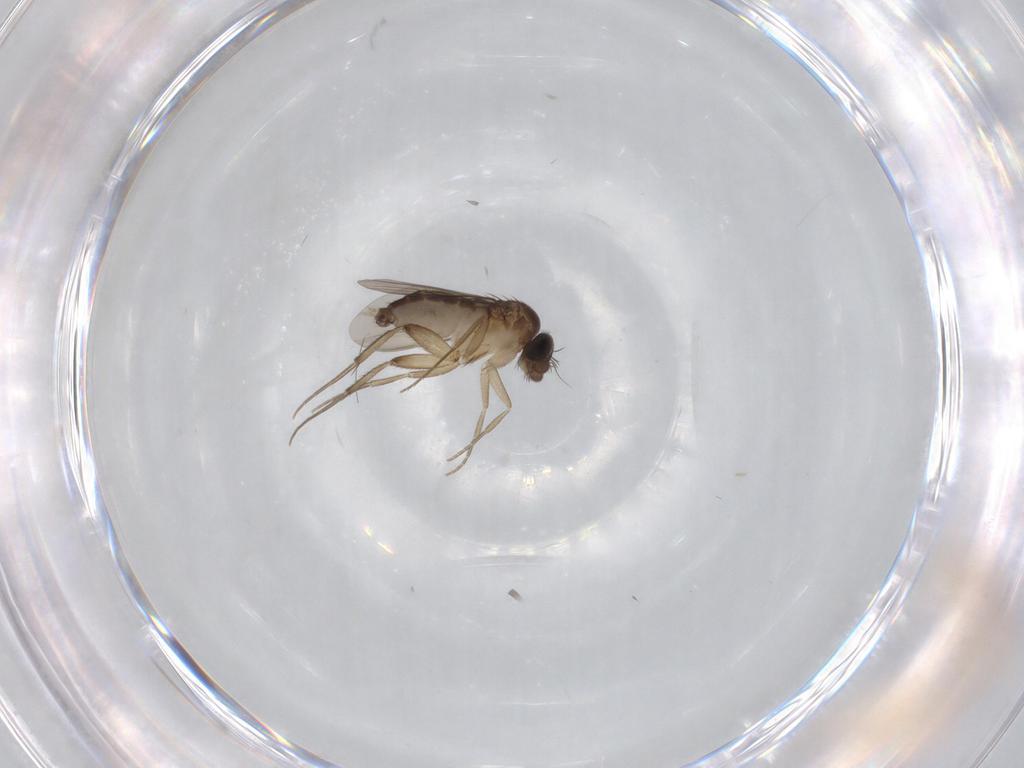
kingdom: Animalia
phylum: Arthropoda
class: Insecta
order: Diptera
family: Phoridae
